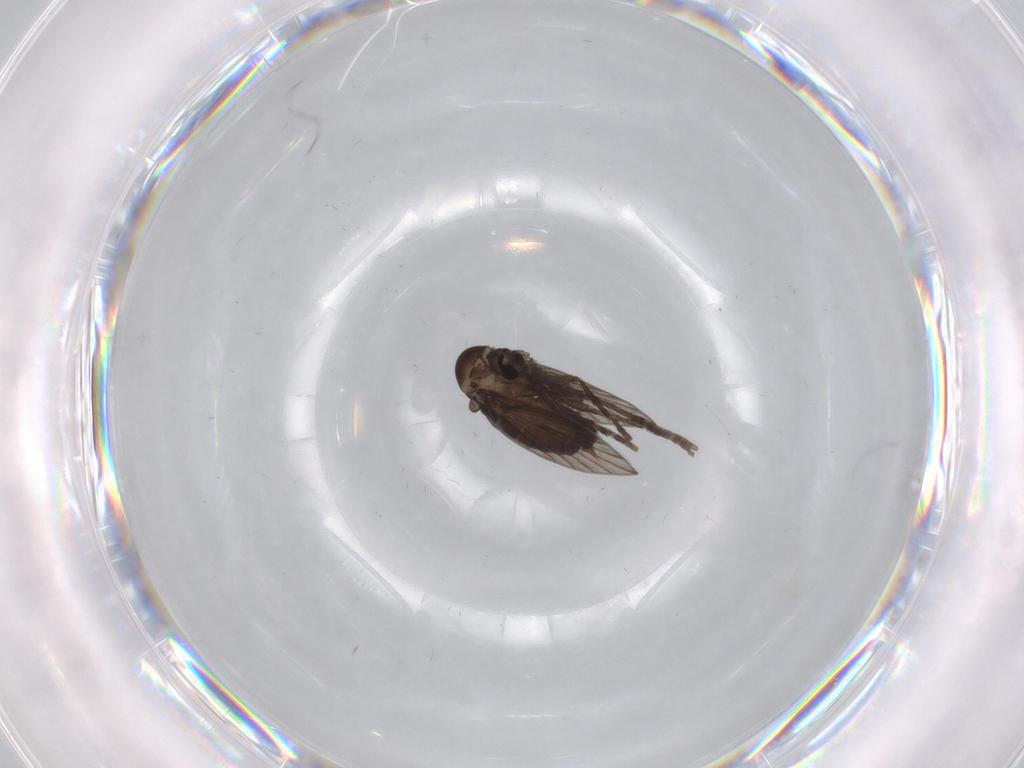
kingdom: Animalia
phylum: Arthropoda
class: Insecta
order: Diptera
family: Psychodidae
